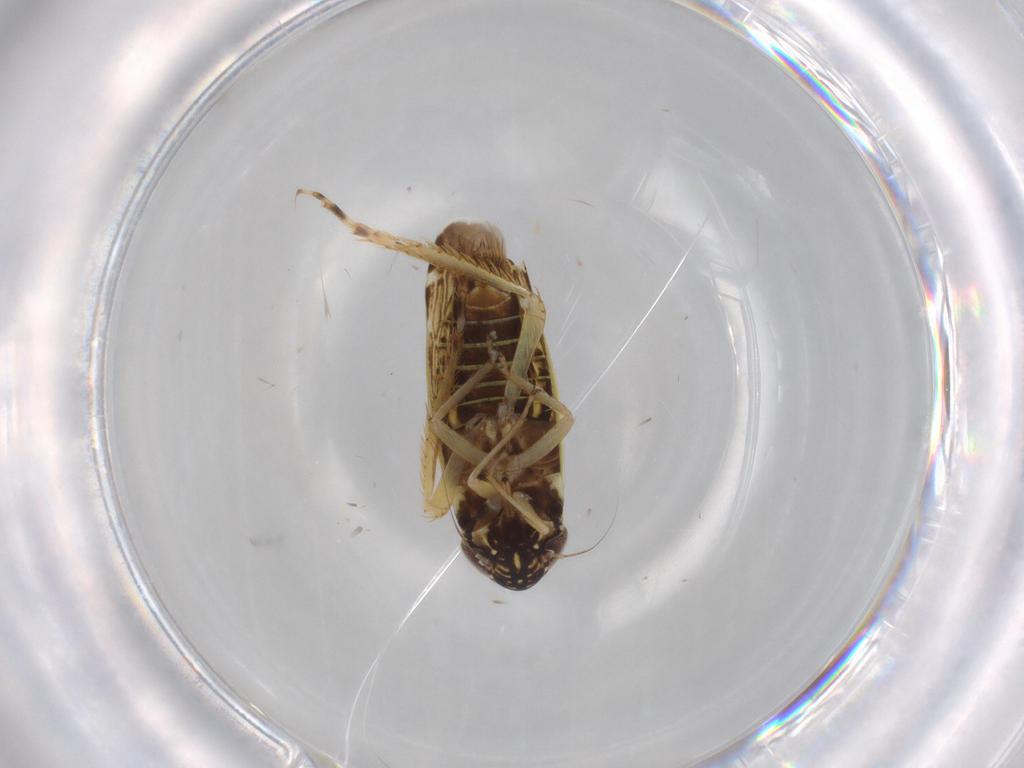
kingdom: Animalia
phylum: Arthropoda
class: Insecta
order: Hemiptera
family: Cicadellidae
